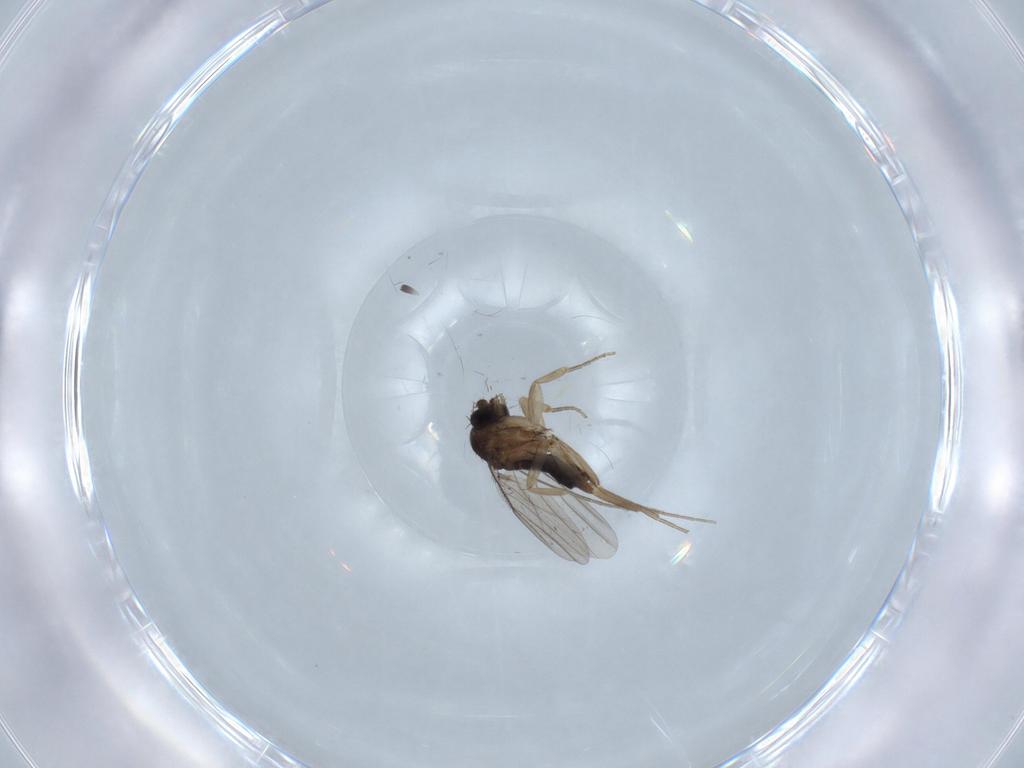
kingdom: Animalia
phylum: Arthropoda
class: Insecta
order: Diptera
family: Phoridae
